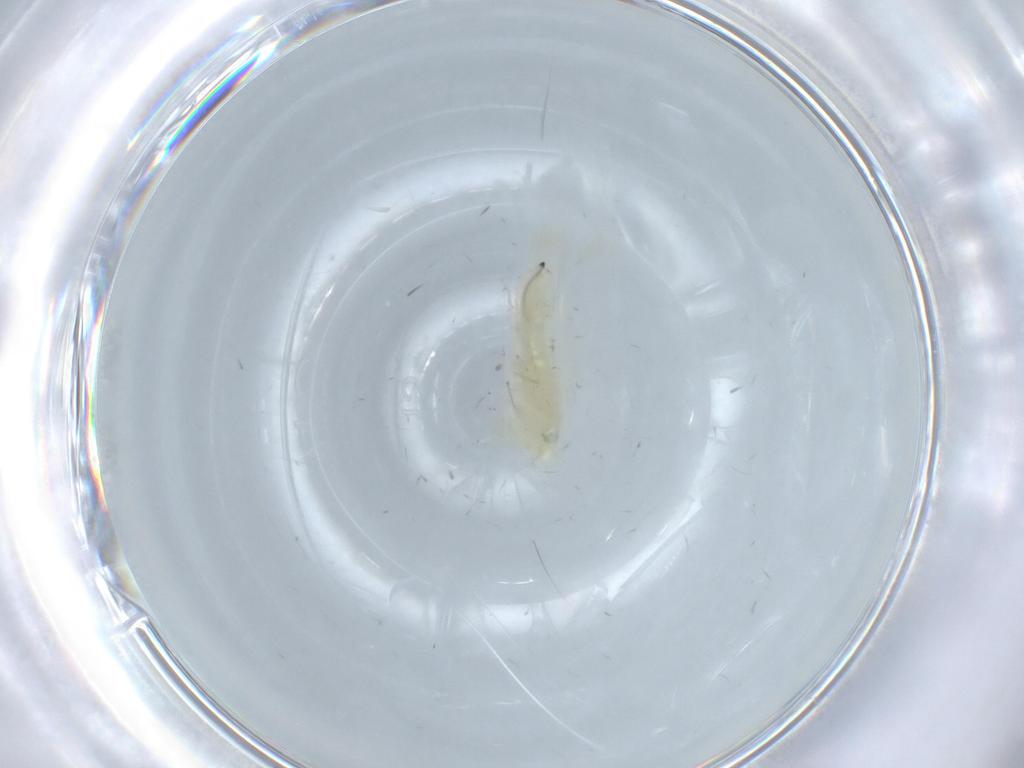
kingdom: Animalia
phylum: Arthropoda
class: Insecta
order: Hemiptera
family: Cicadellidae
